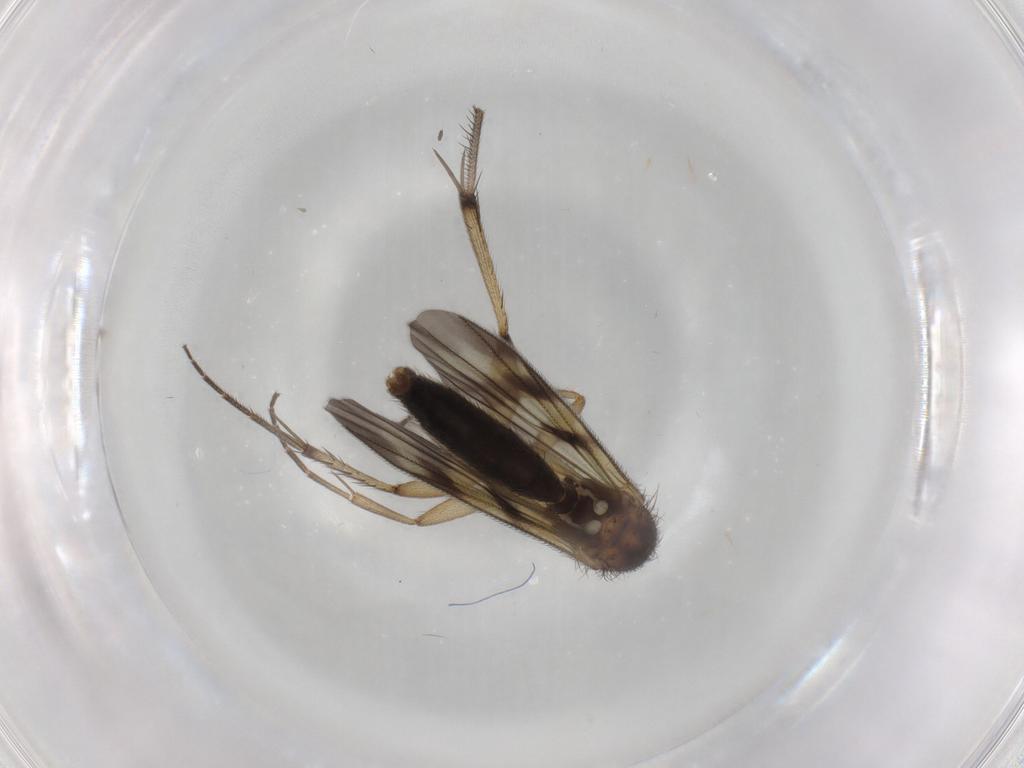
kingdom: Animalia
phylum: Arthropoda
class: Insecta
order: Diptera
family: Mycetophilidae
